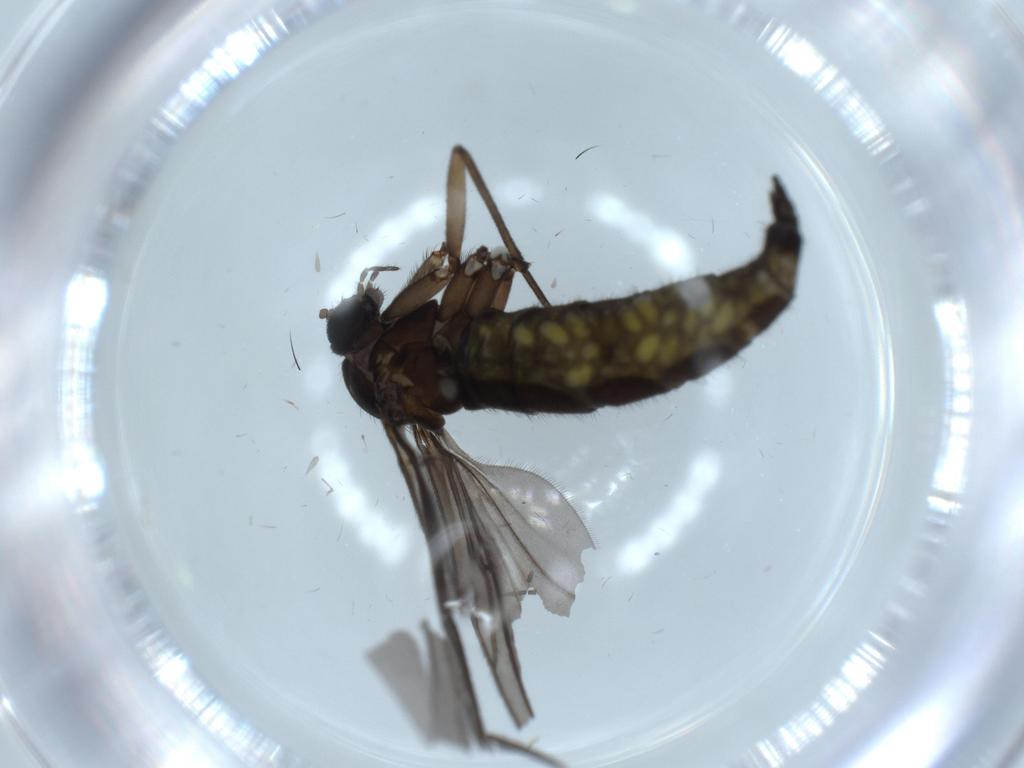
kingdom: Animalia
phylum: Arthropoda
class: Insecta
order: Diptera
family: Sciaridae
